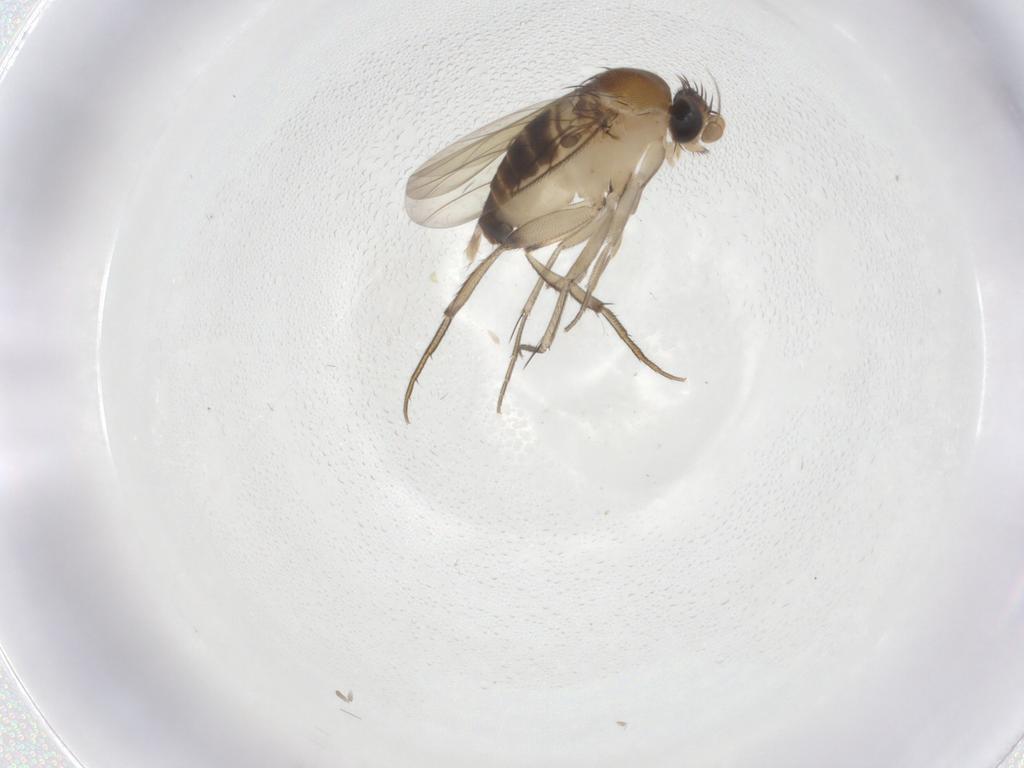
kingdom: Animalia
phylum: Arthropoda
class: Insecta
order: Diptera
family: Phoridae
